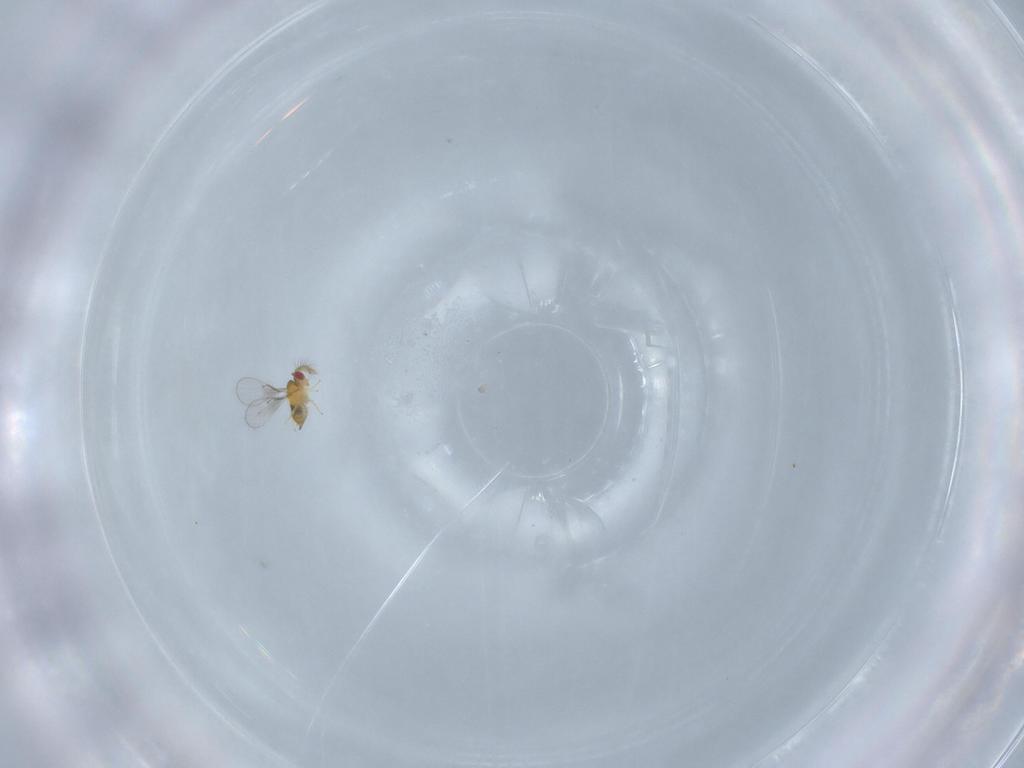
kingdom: Animalia
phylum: Arthropoda
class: Insecta
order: Hymenoptera
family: Trichogrammatidae
